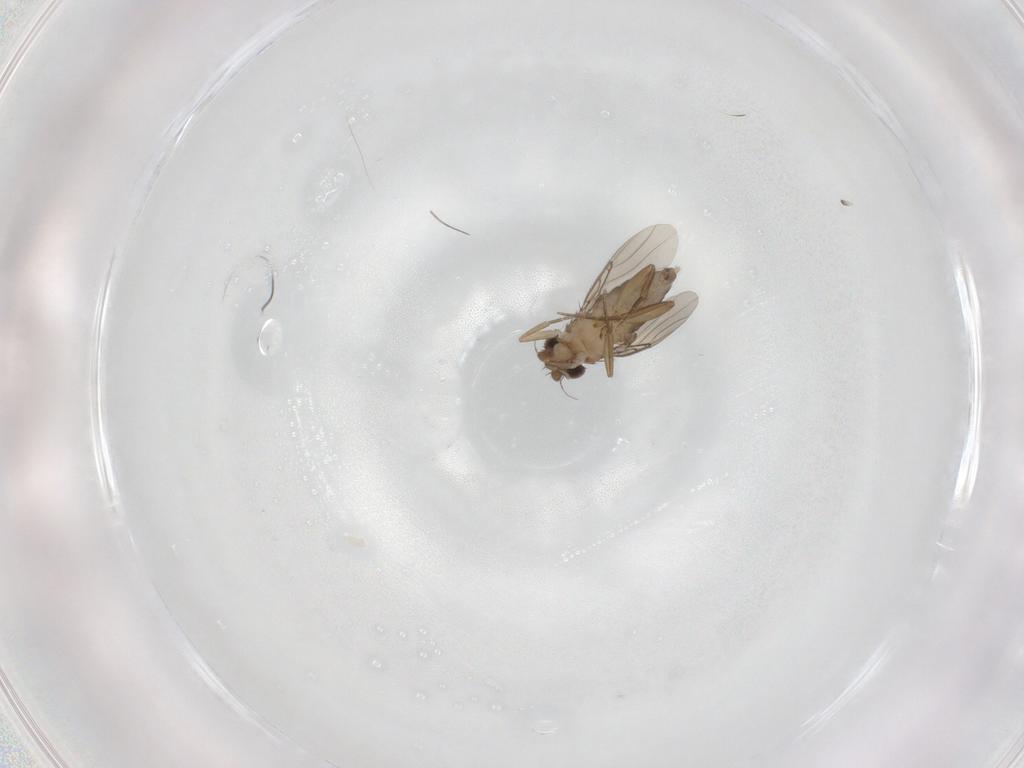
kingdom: Animalia
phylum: Arthropoda
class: Insecta
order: Diptera
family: Phoridae
